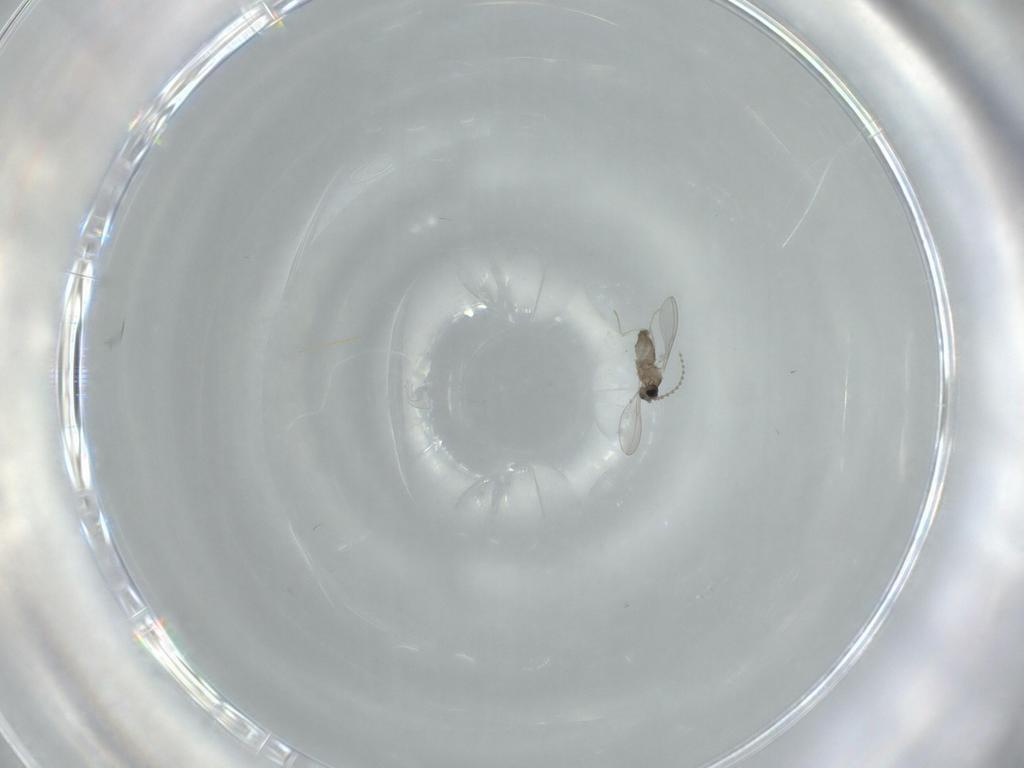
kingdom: Animalia
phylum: Arthropoda
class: Insecta
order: Diptera
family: Cecidomyiidae
